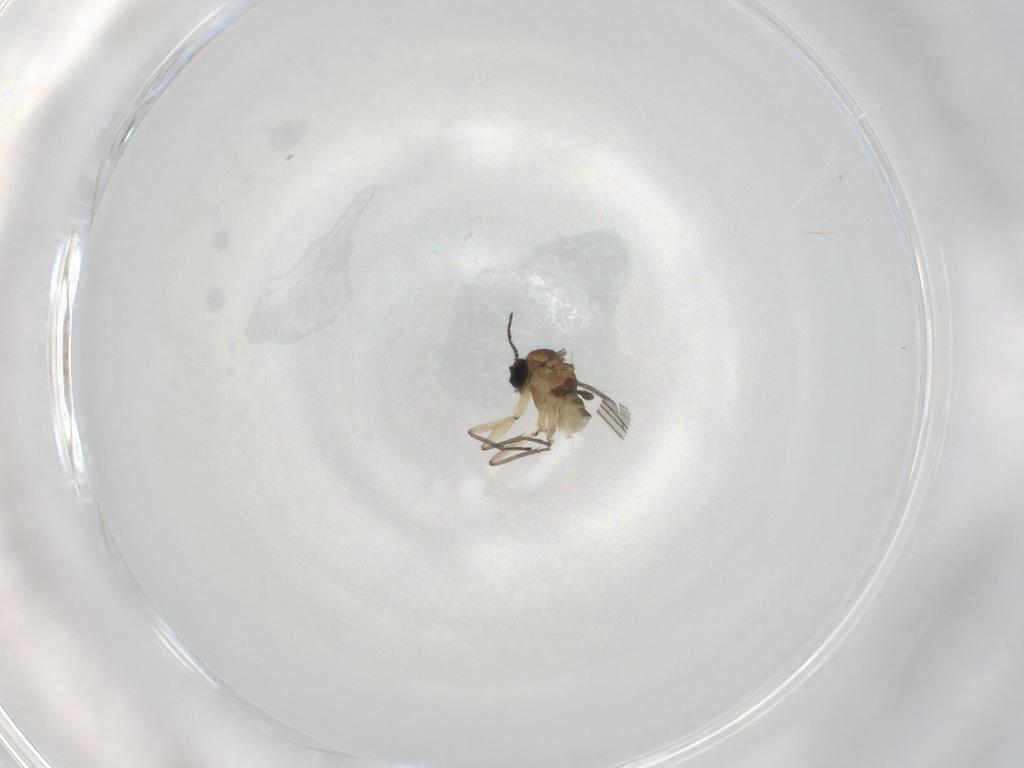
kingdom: Animalia
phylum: Arthropoda
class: Insecta
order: Diptera
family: Sciaridae
